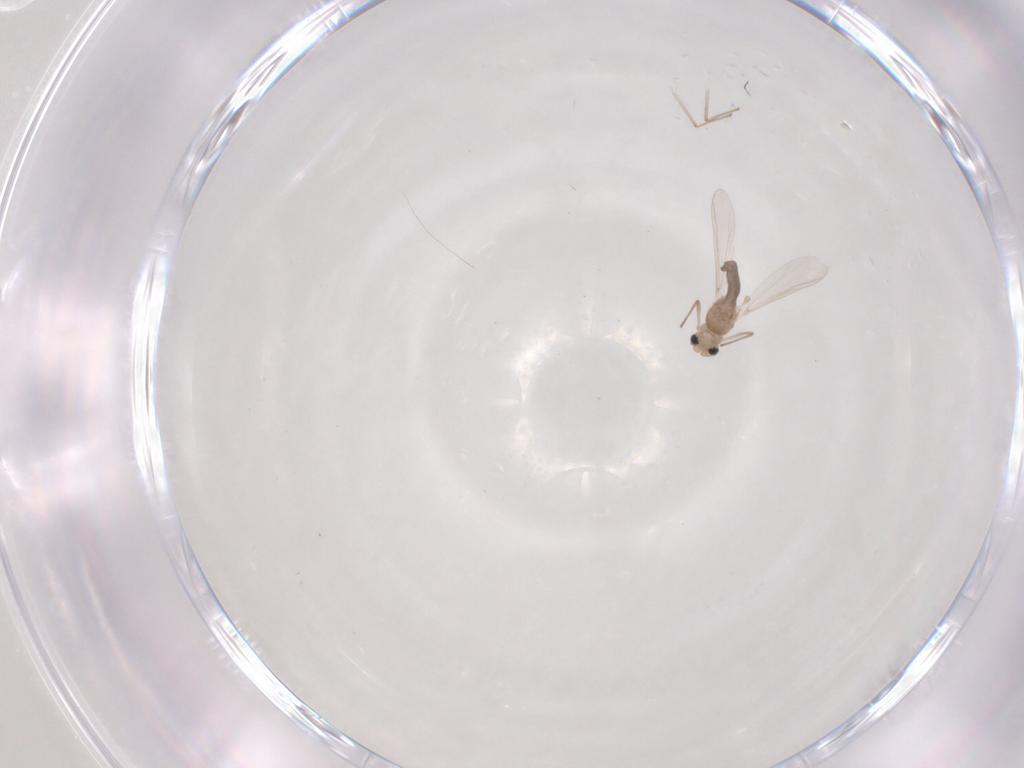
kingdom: Animalia
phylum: Arthropoda
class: Insecta
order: Diptera
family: Chironomidae
